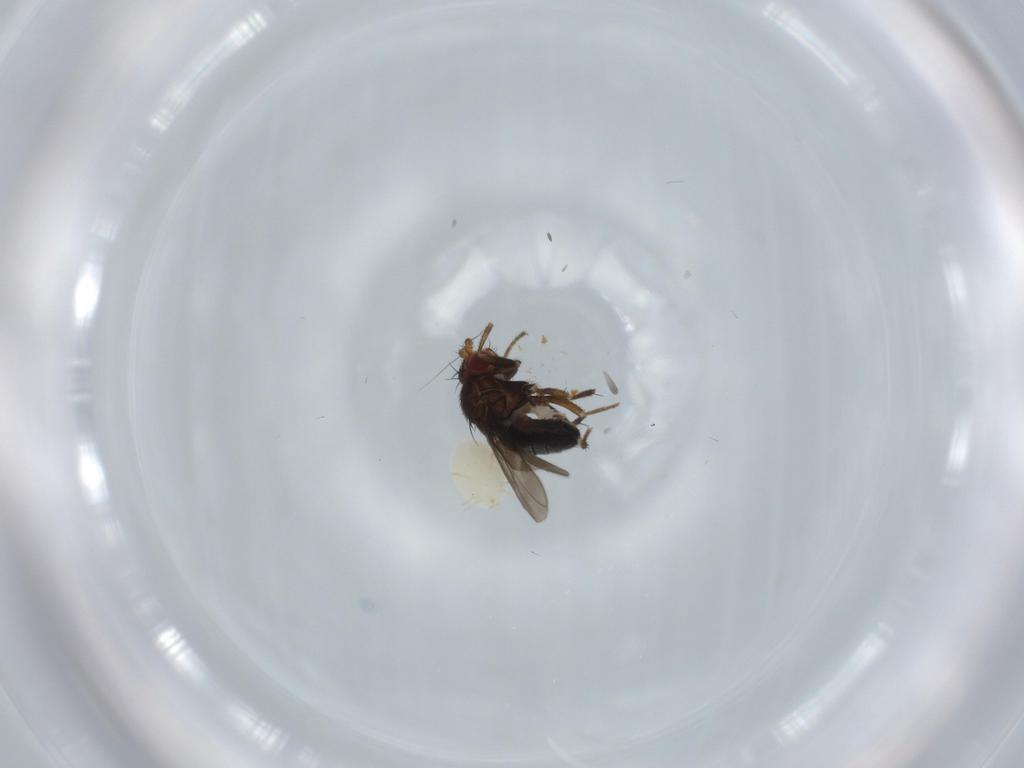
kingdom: Animalia
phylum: Arthropoda
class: Insecta
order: Diptera
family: Sphaeroceridae
